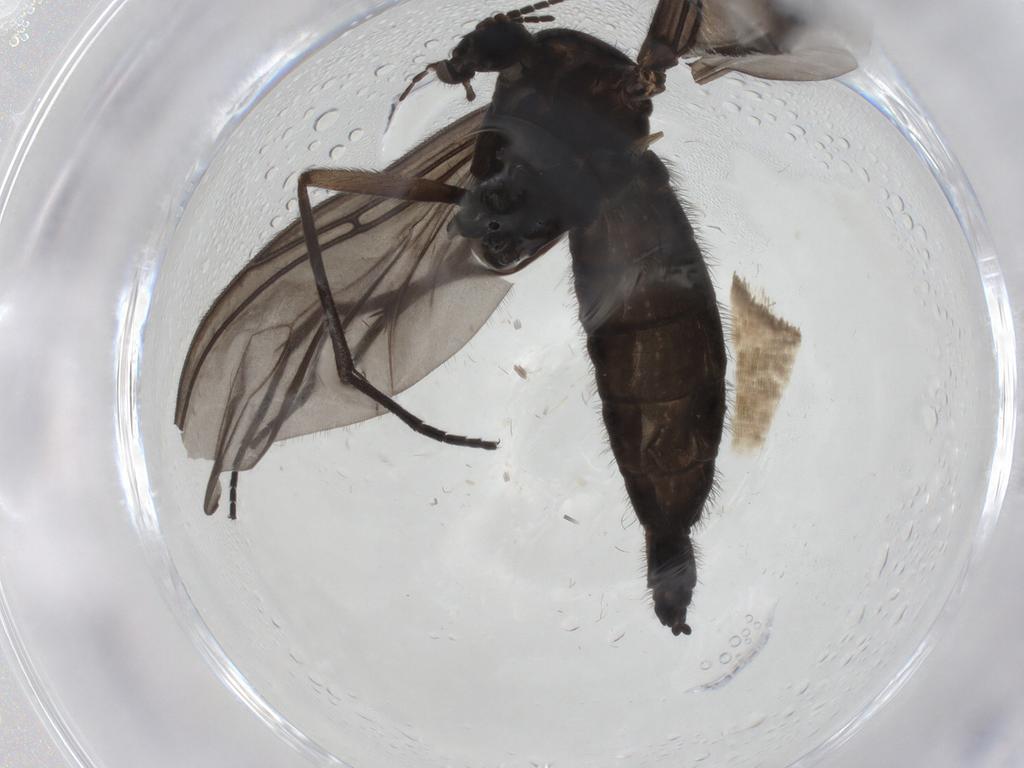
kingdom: Animalia
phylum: Arthropoda
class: Insecta
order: Diptera
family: Sciaridae
